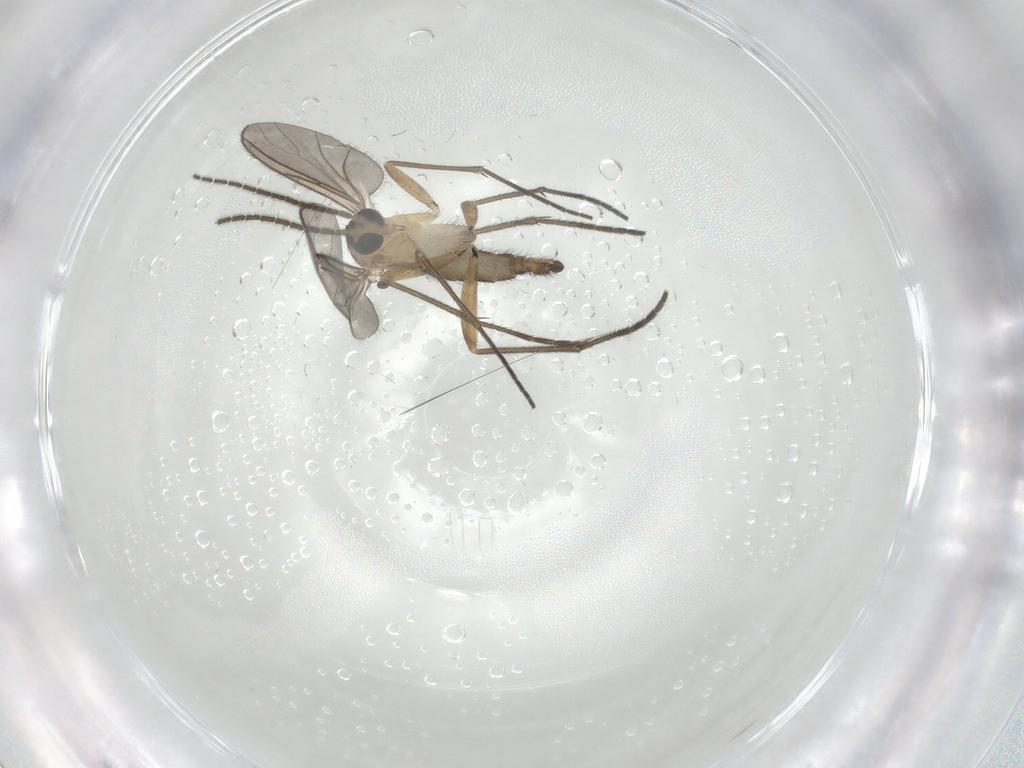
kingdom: Animalia
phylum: Arthropoda
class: Insecta
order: Diptera
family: Sciaridae
